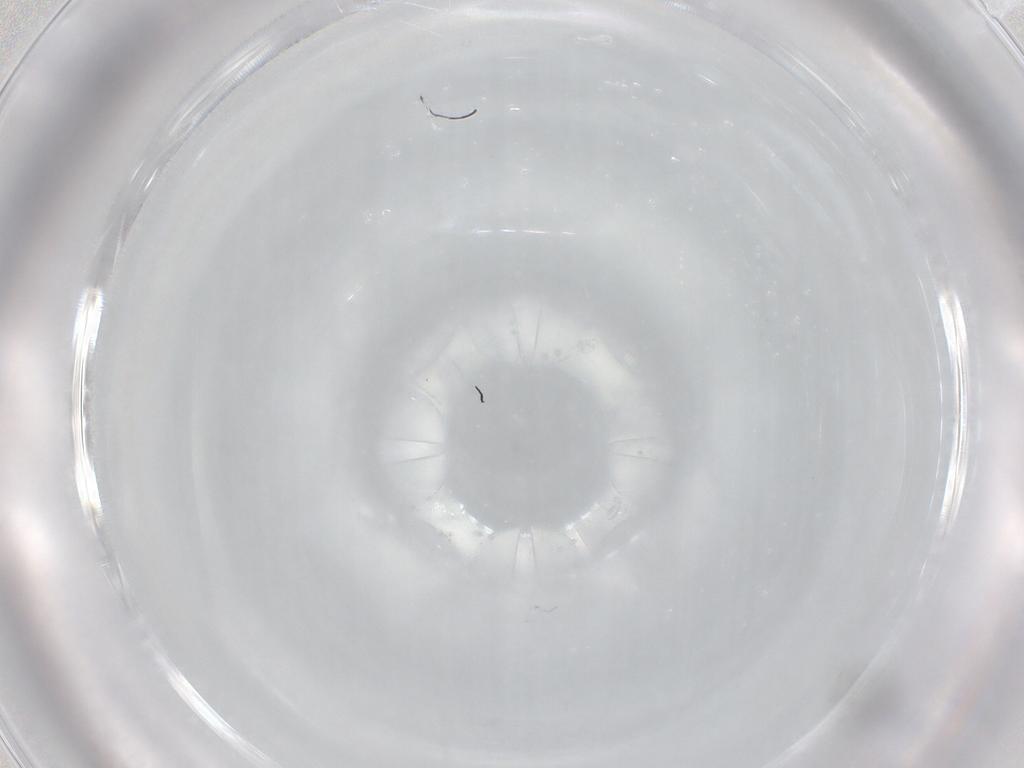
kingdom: Animalia
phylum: Arthropoda
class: Insecta
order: Diptera
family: Phoridae
